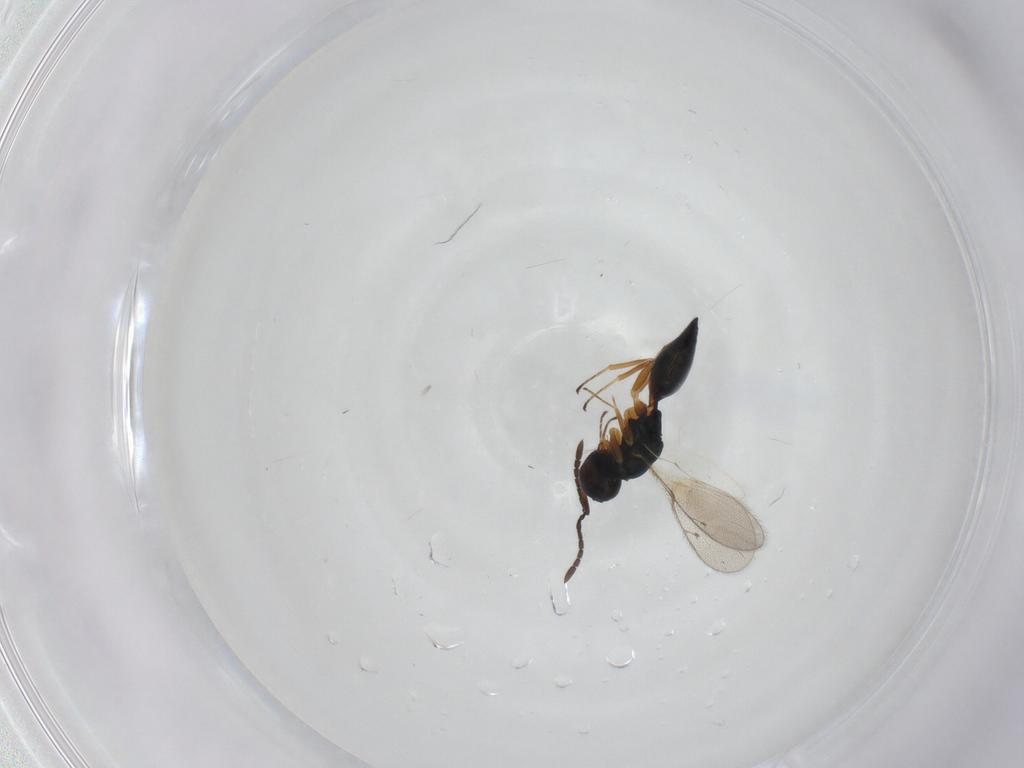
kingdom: Animalia
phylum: Arthropoda
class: Insecta
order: Hymenoptera
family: Pteromalidae
